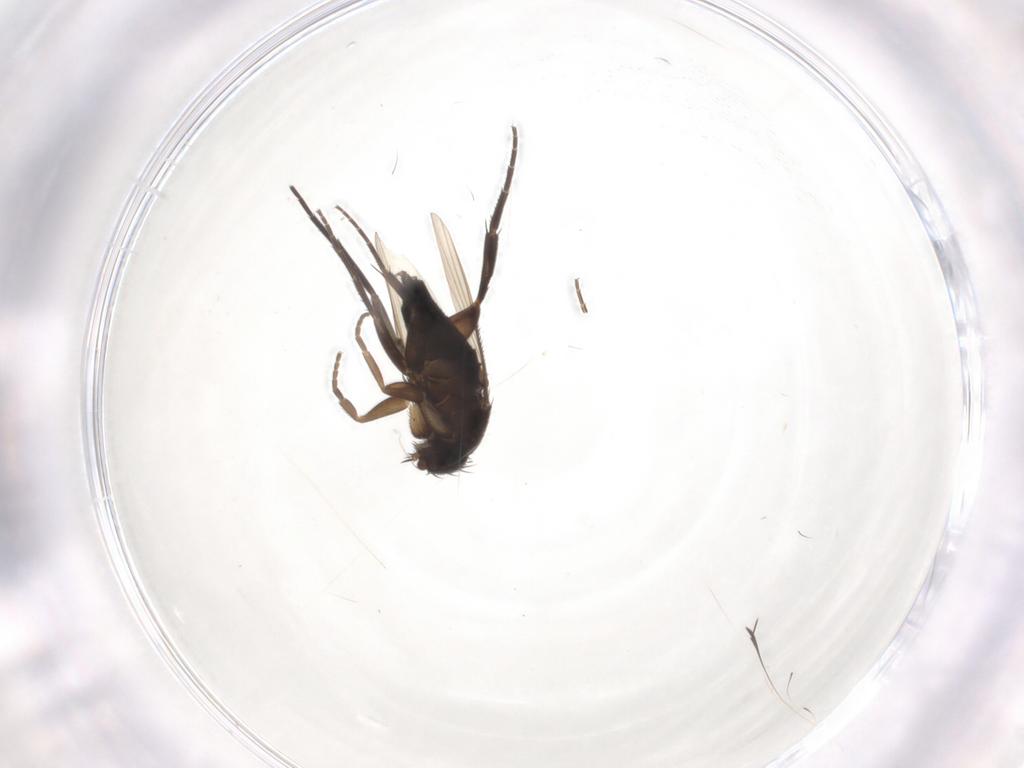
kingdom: Animalia
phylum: Arthropoda
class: Insecta
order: Diptera
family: Phoridae
